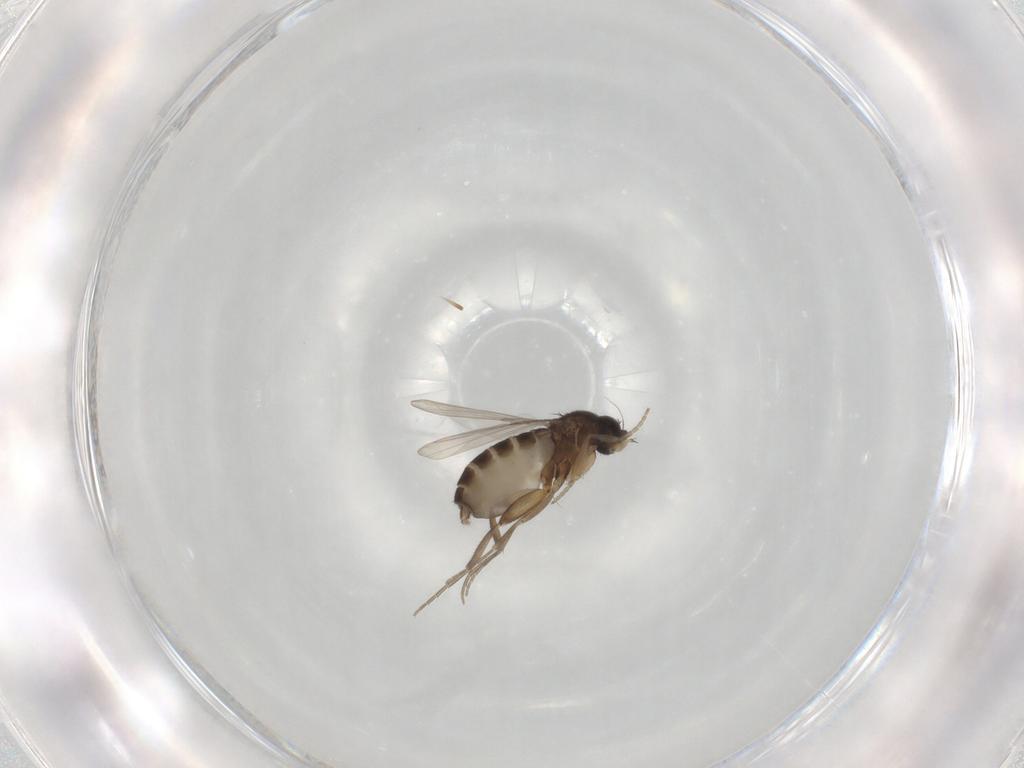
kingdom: Animalia
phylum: Arthropoda
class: Insecta
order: Diptera
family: Phoridae
